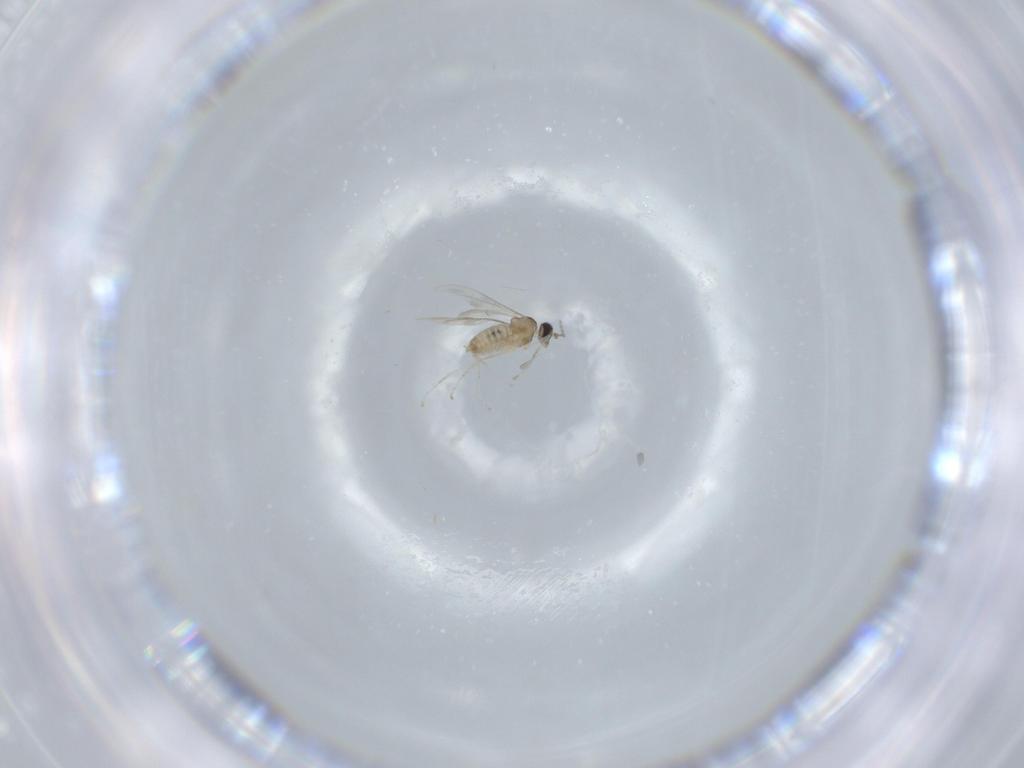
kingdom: Animalia
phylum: Arthropoda
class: Insecta
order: Diptera
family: Cecidomyiidae
